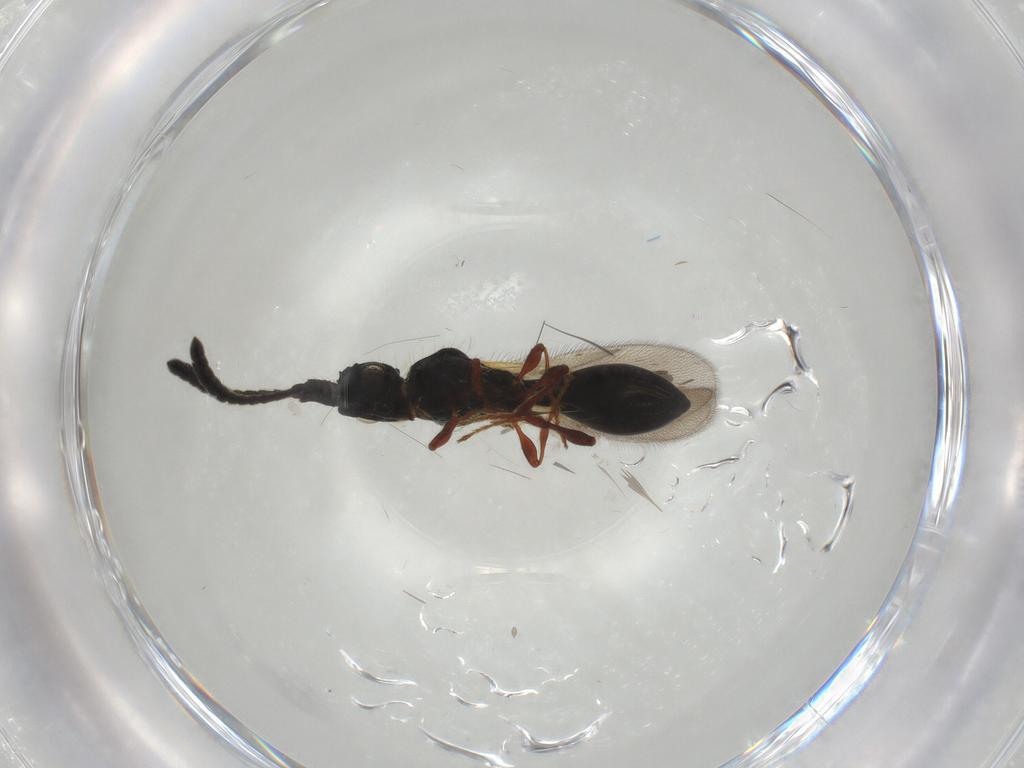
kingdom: Animalia
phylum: Arthropoda
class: Insecta
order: Hymenoptera
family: Diapriidae
